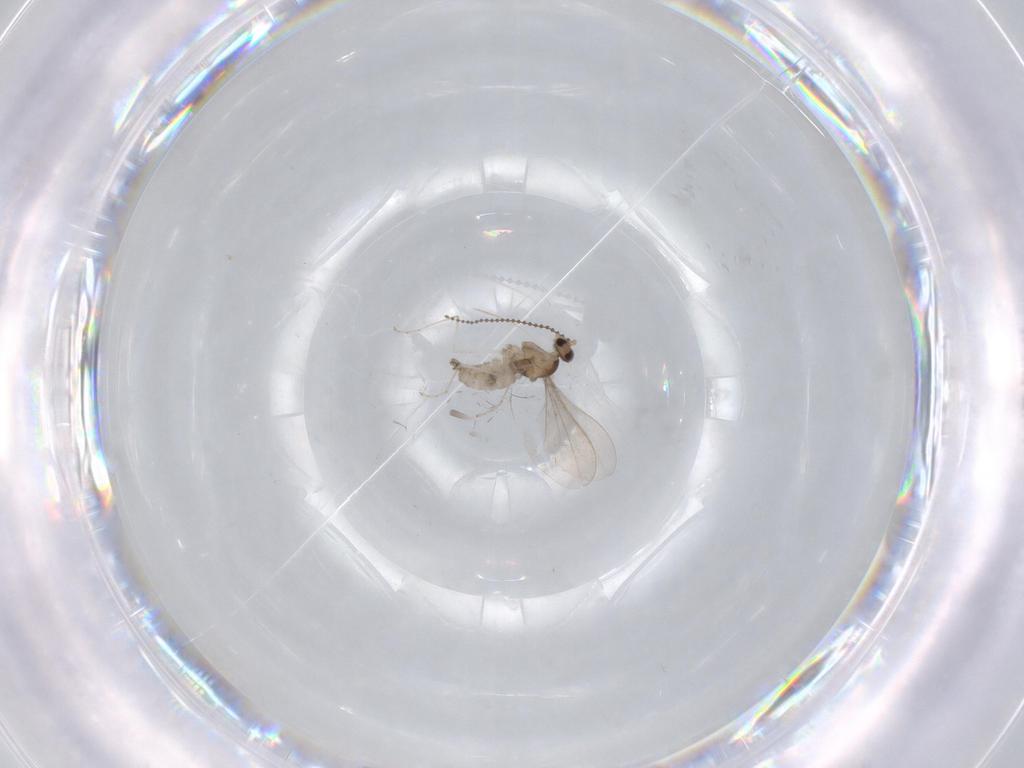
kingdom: Animalia
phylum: Arthropoda
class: Insecta
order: Diptera
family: Cecidomyiidae
